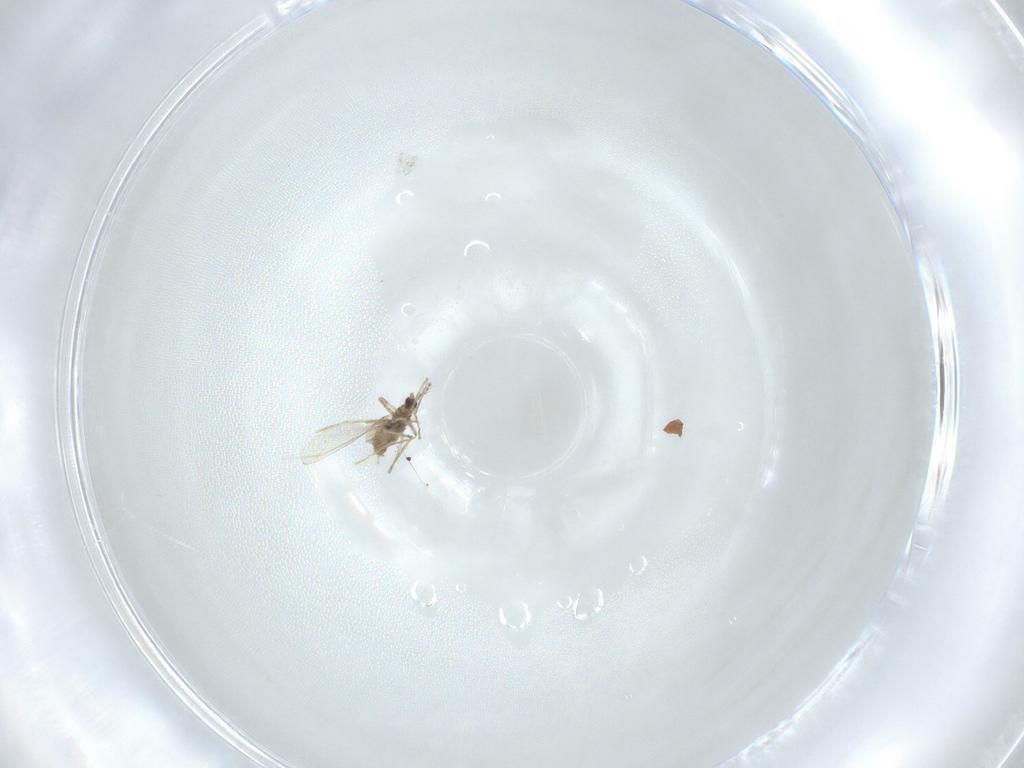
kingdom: Animalia
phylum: Arthropoda
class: Insecta
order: Diptera
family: Cecidomyiidae
